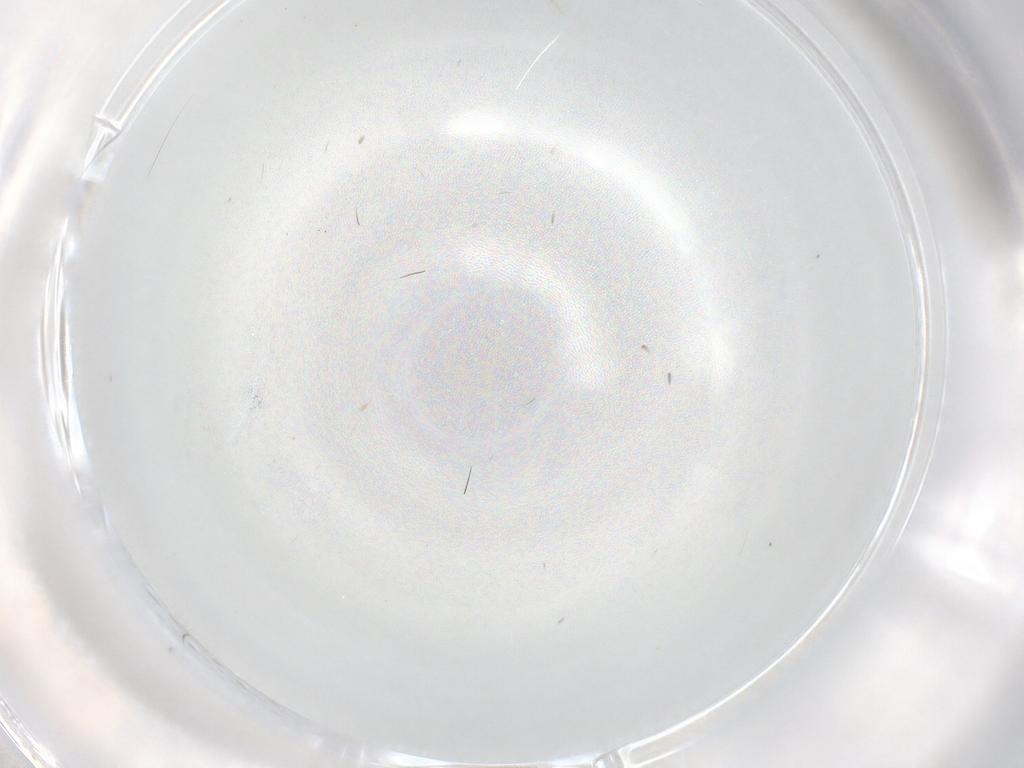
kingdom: Animalia
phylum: Arthropoda
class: Insecta
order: Diptera
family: Cecidomyiidae
